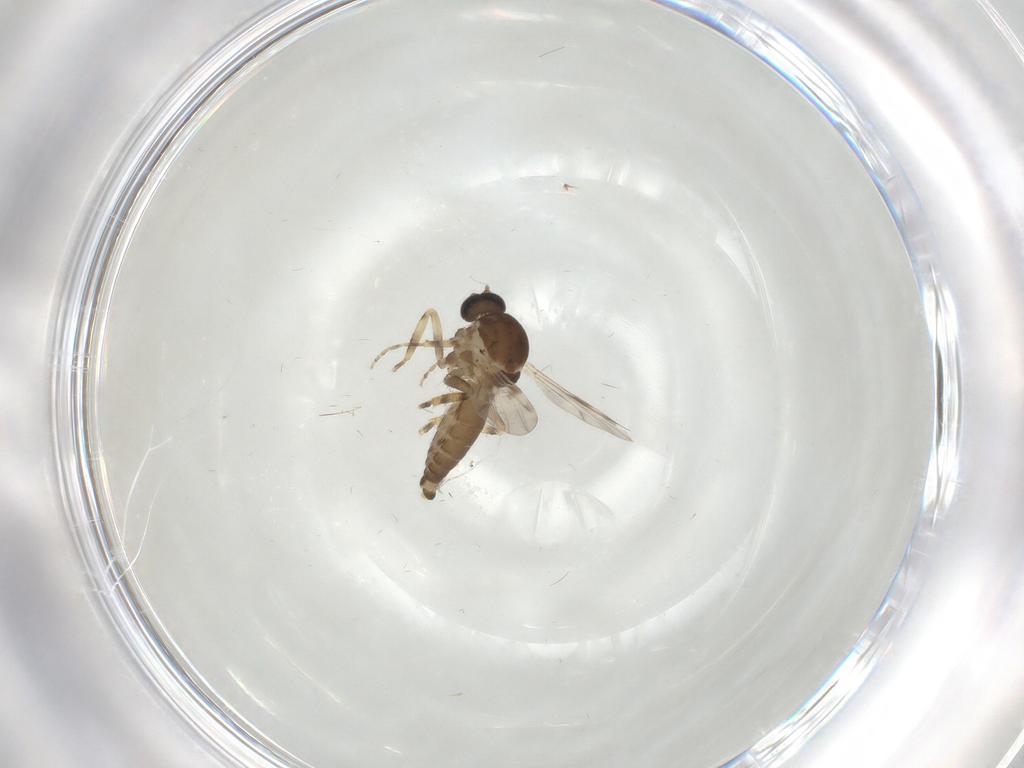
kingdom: Animalia
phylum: Arthropoda
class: Insecta
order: Diptera
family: Ceratopogonidae
